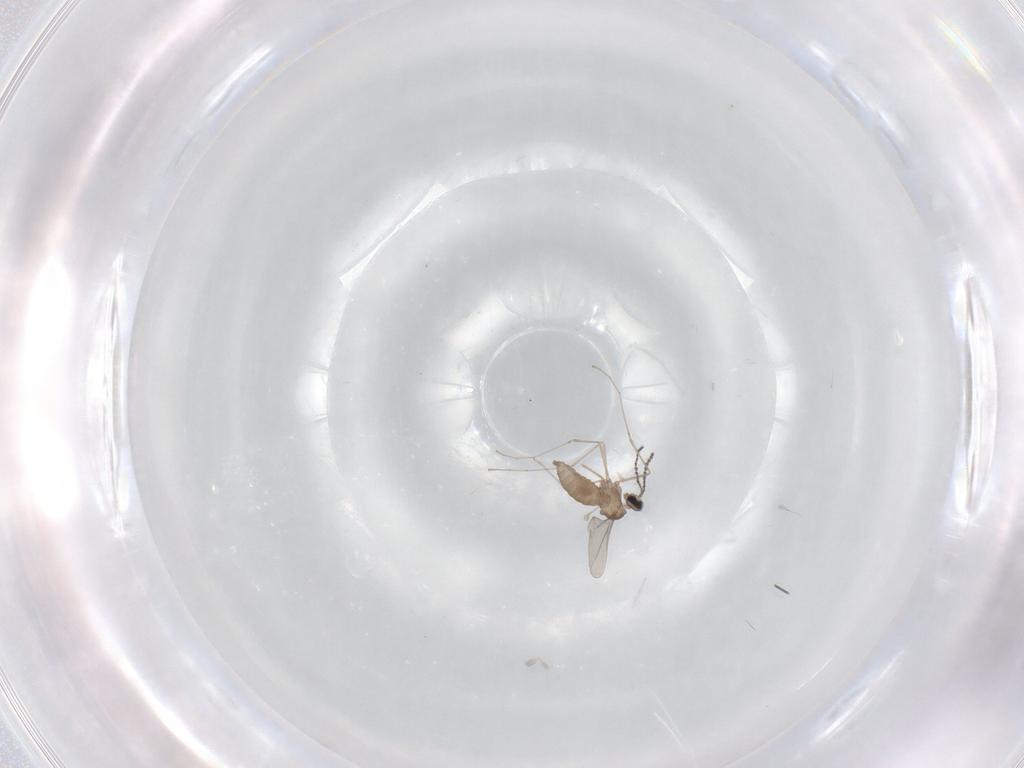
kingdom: Animalia
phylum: Arthropoda
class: Insecta
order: Diptera
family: Cecidomyiidae
